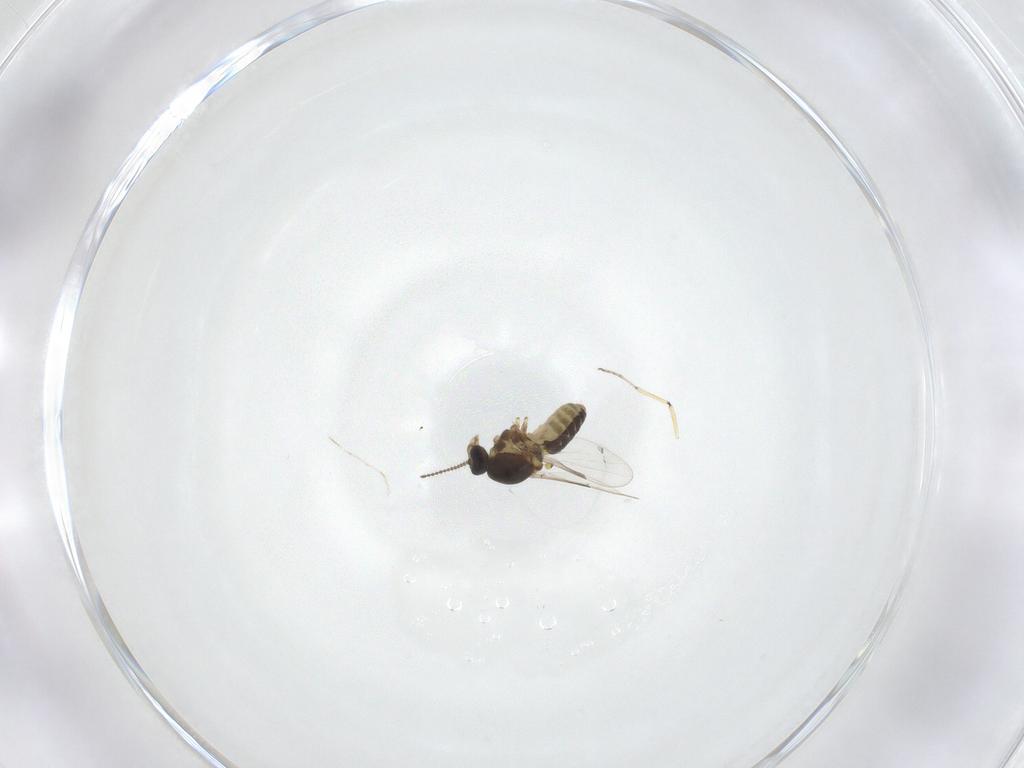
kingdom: Animalia
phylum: Arthropoda
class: Insecta
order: Diptera
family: Ceratopogonidae
